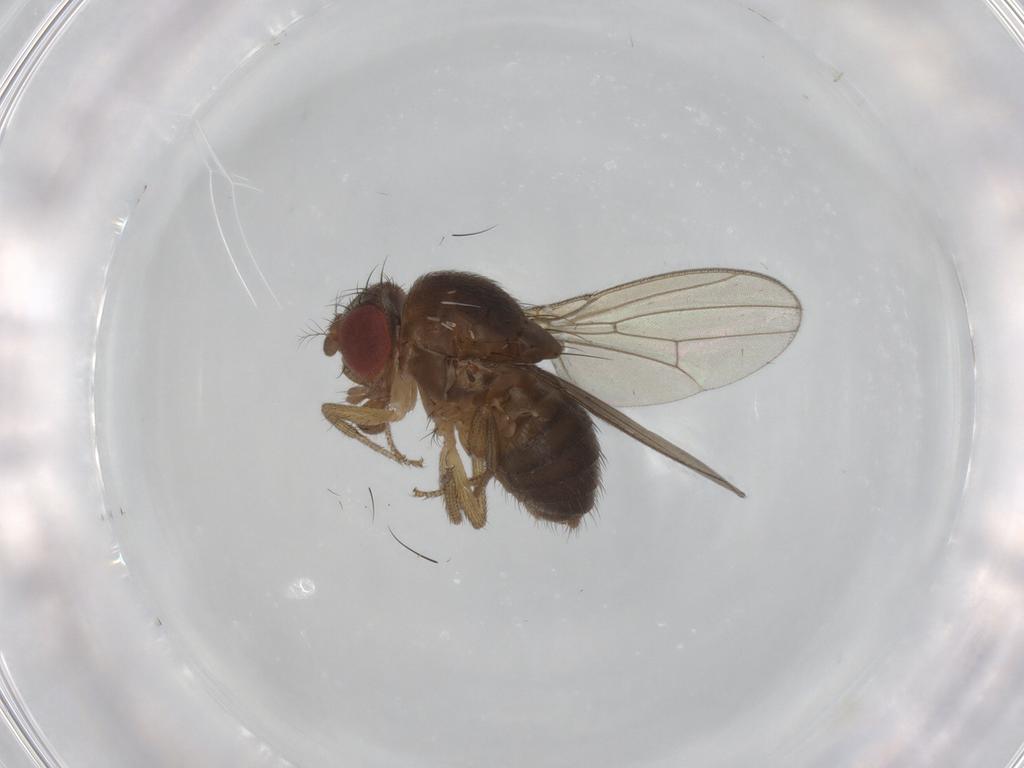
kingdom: Animalia
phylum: Arthropoda
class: Insecta
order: Diptera
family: Drosophilidae
